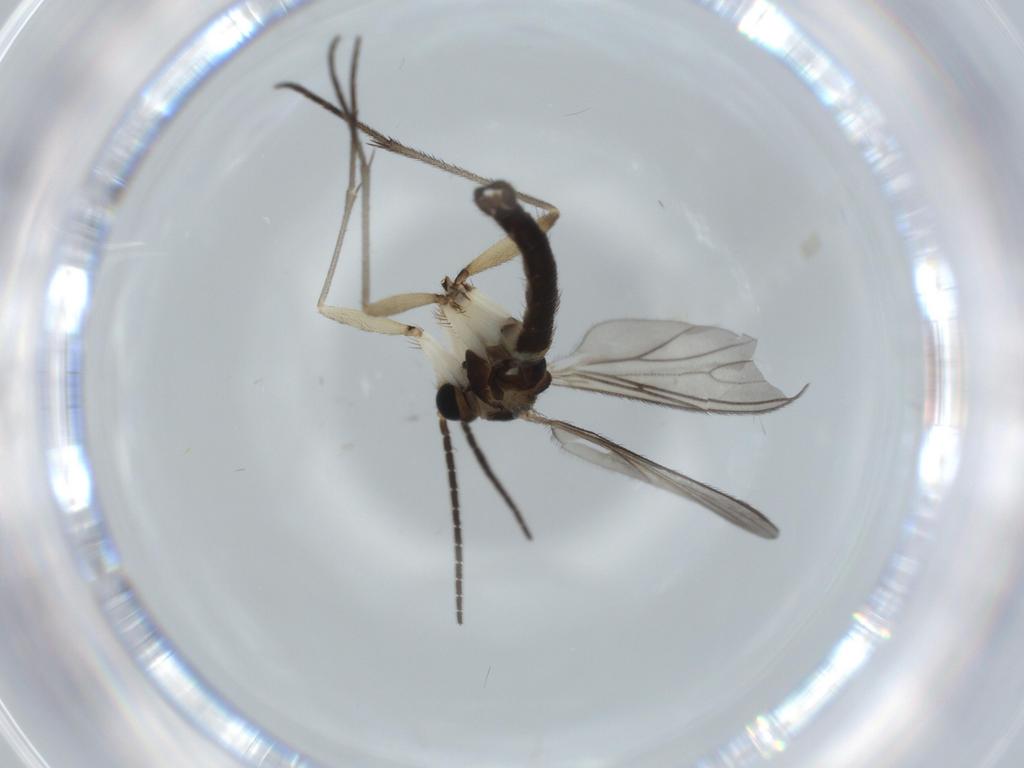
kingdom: Animalia
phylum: Arthropoda
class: Insecta
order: Diptera
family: Sciaridae
